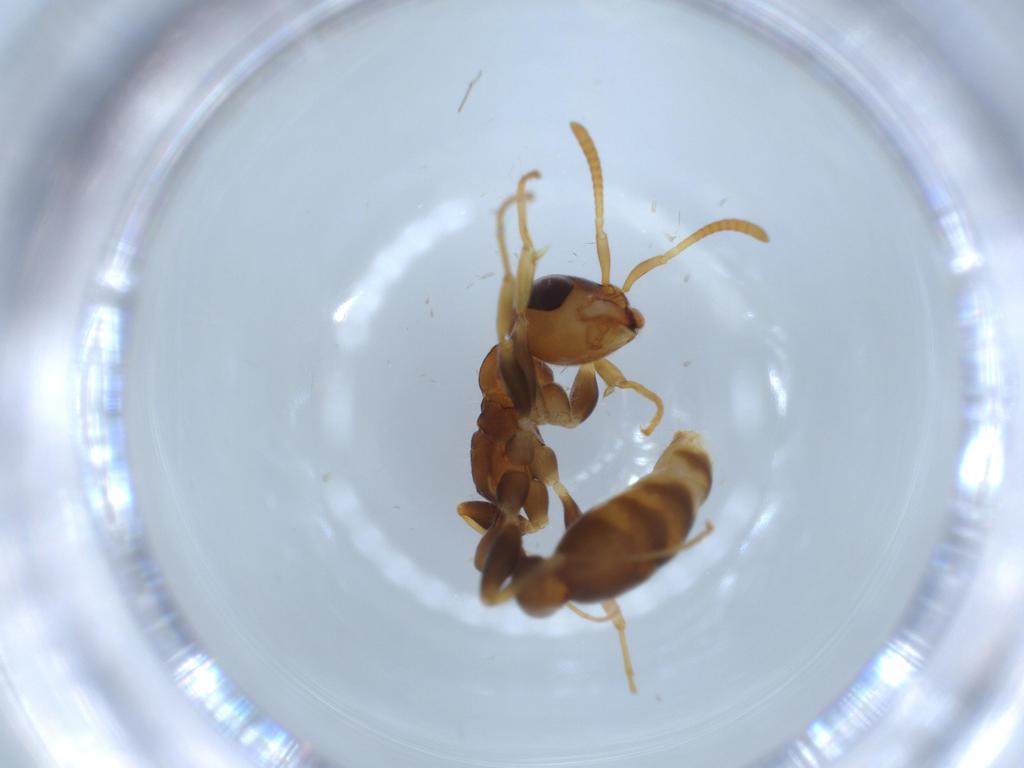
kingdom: Animalia
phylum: Arthropoda
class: Insecta
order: Hymenoptera
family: Formicidae
